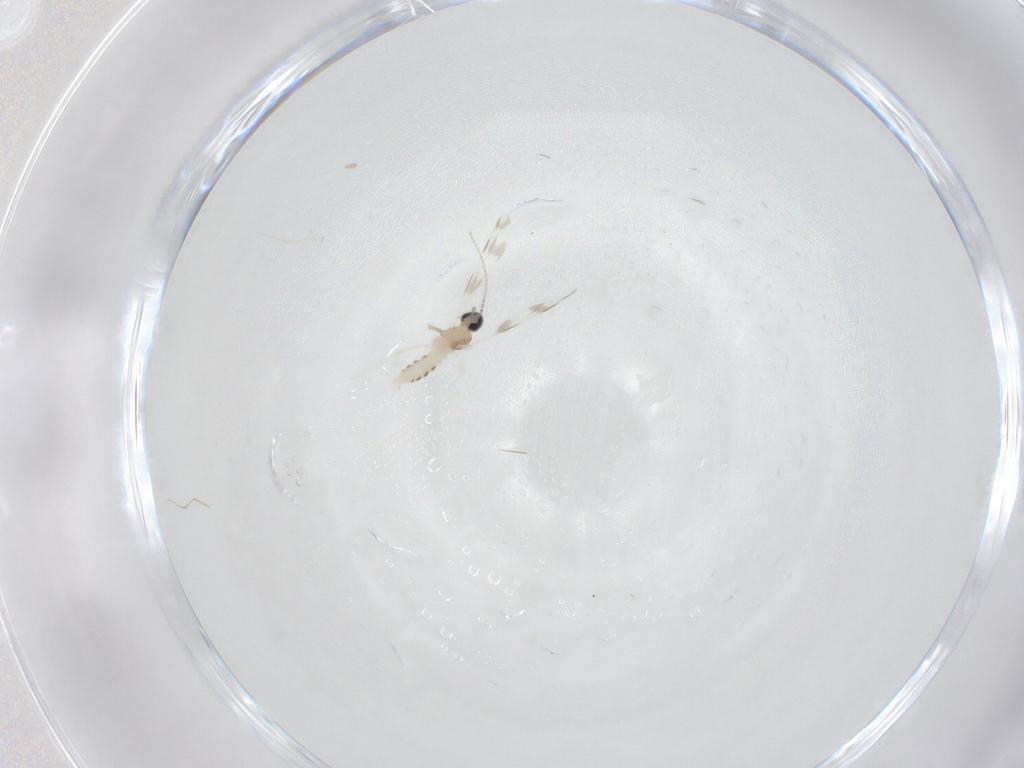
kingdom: Animalia
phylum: Arthropoda
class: Insecta
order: Diptera
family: Cecidomyiidae
